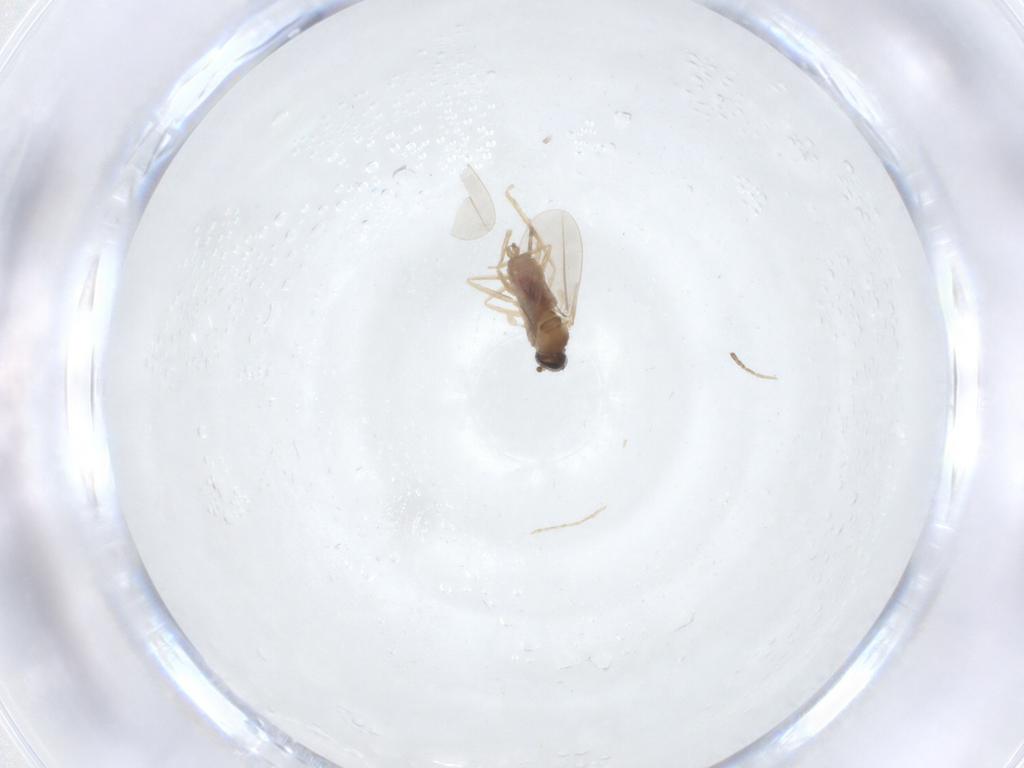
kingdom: Animalia
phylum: Arthropoda
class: Insecta
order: Diptera
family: Cecidomyiidae
